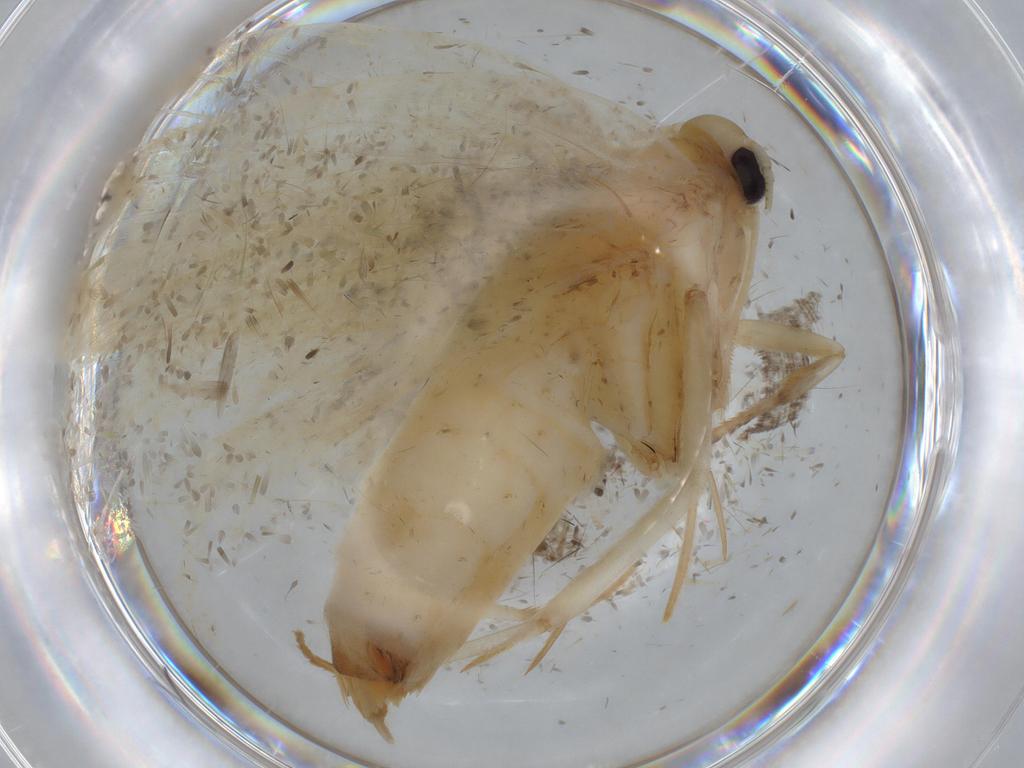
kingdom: Animalia
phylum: Arthropoda
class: Insecta
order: Lepidoptera
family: Psychidae
